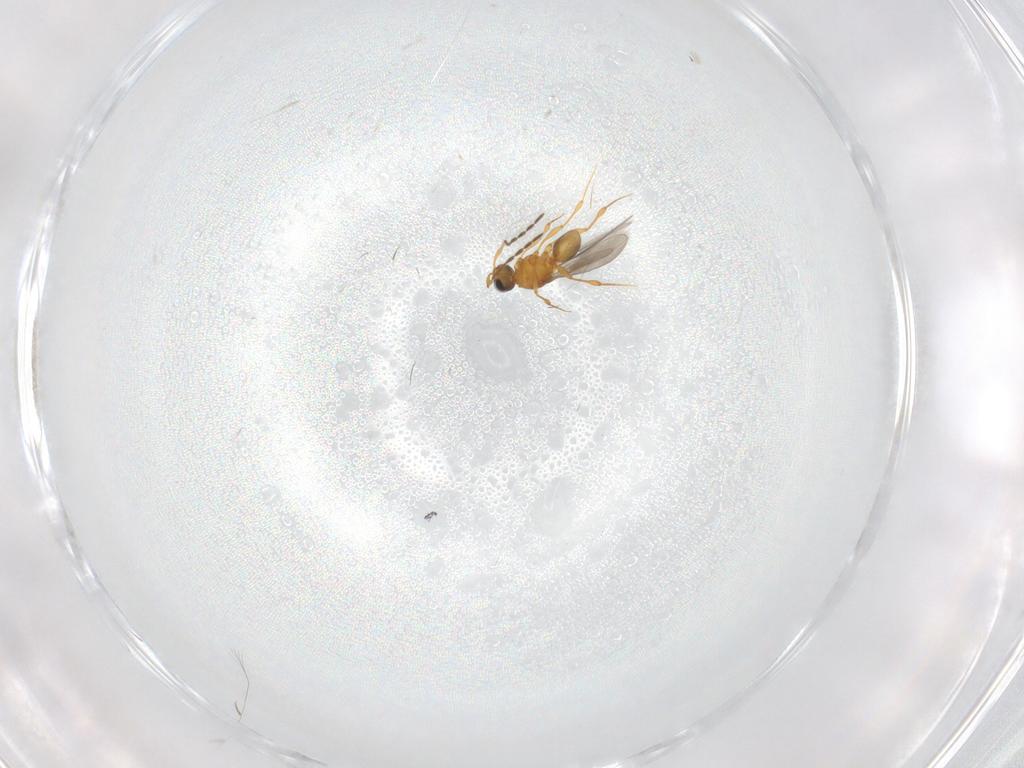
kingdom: Animalia
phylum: Arthropoda
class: Insecta
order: Hymenoptera
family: Platygastridae
